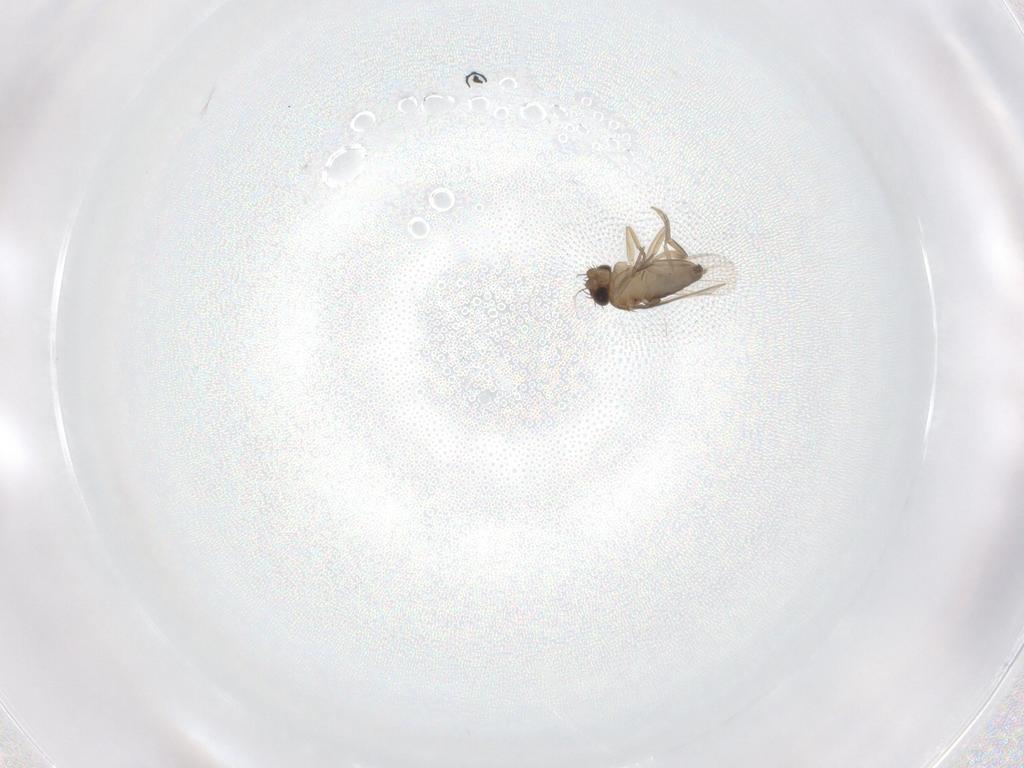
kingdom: Animalia
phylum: Arthropoda
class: Insecta
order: Diptera
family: Phoridae
